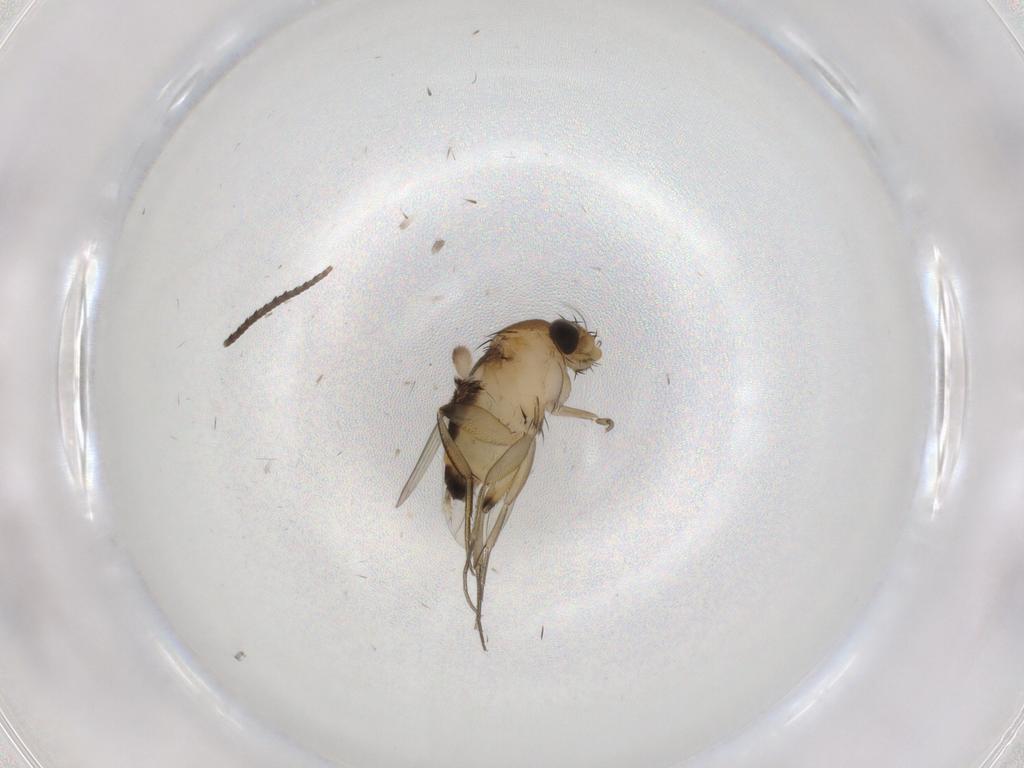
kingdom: Animalia
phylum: Arthropoda
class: Insecta
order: Diptera
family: Phoridae
